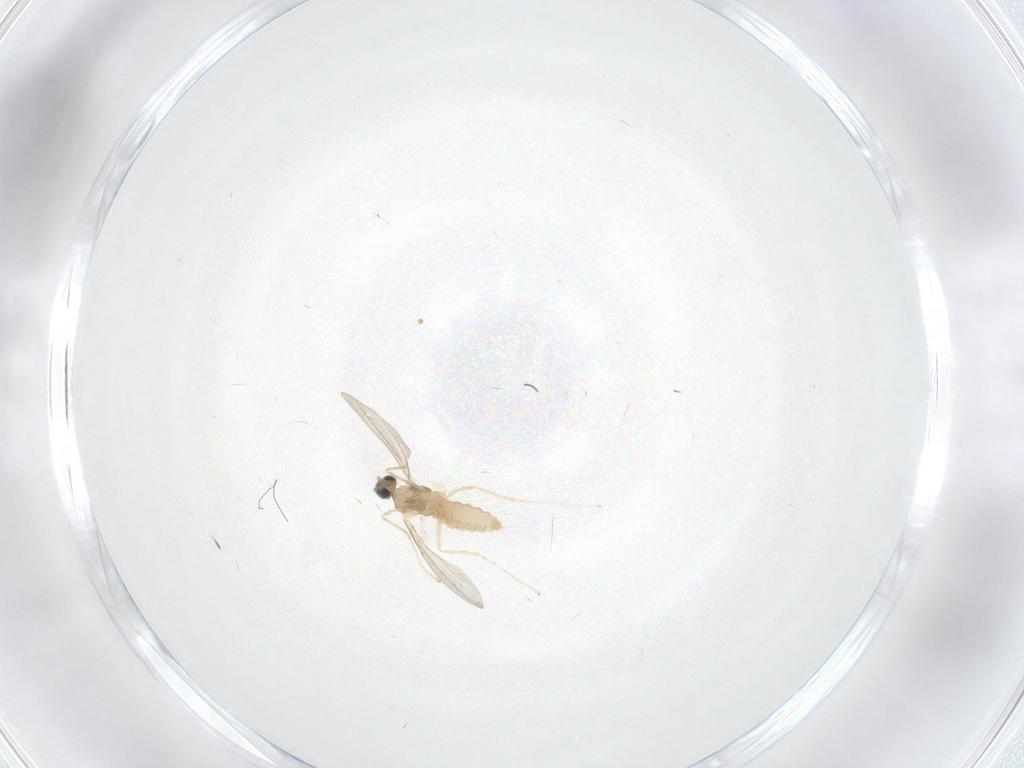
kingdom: Animalia
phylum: Arthropoda
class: Insecta
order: Diptera
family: Cecidomyiidae
